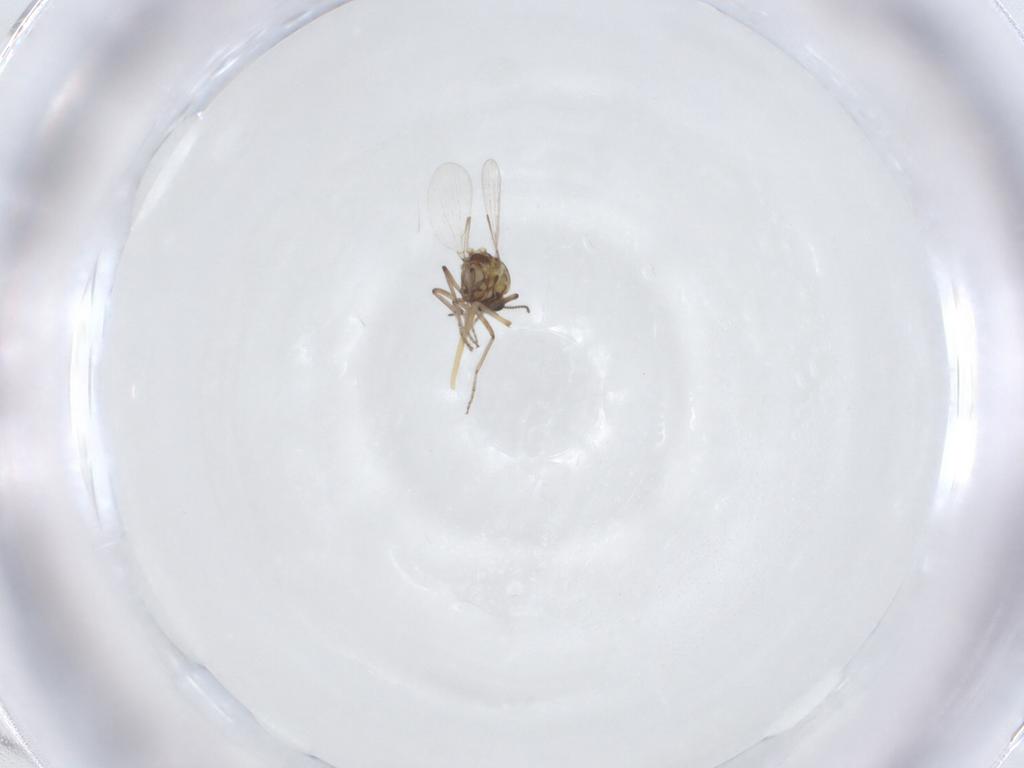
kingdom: Animalia
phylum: Arthropoda
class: Insecta
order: Diptera
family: Ceratopogonidae
